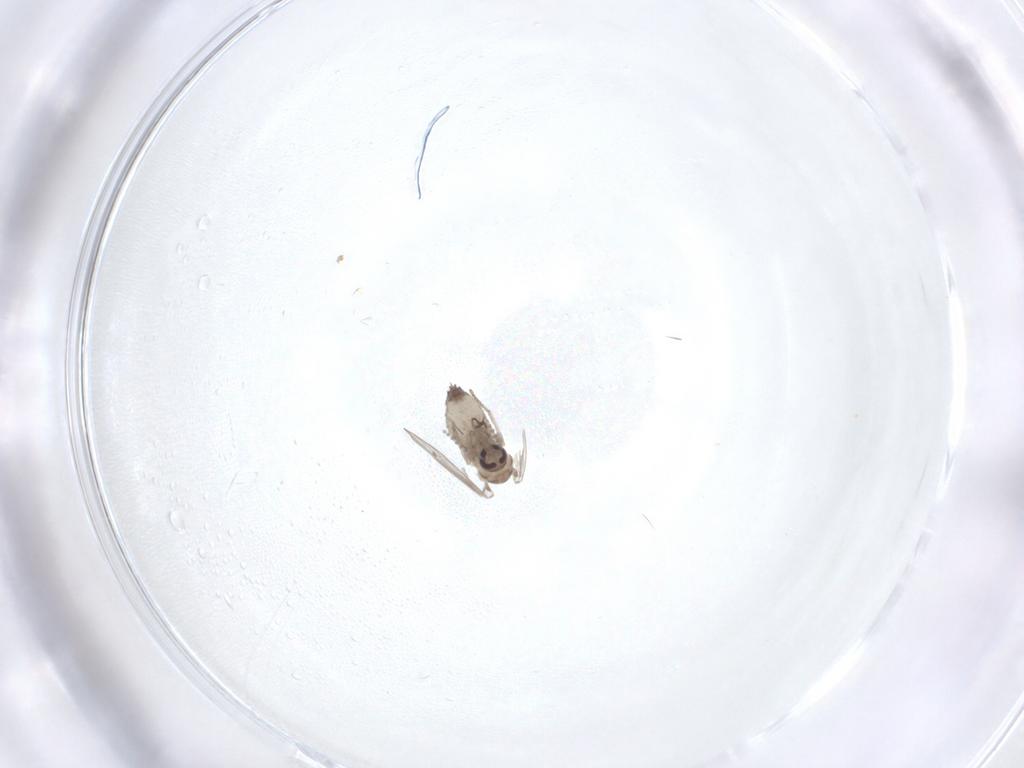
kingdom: Animalia
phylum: Arthropoda
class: Insecta
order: Diptera
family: Psychodidae
